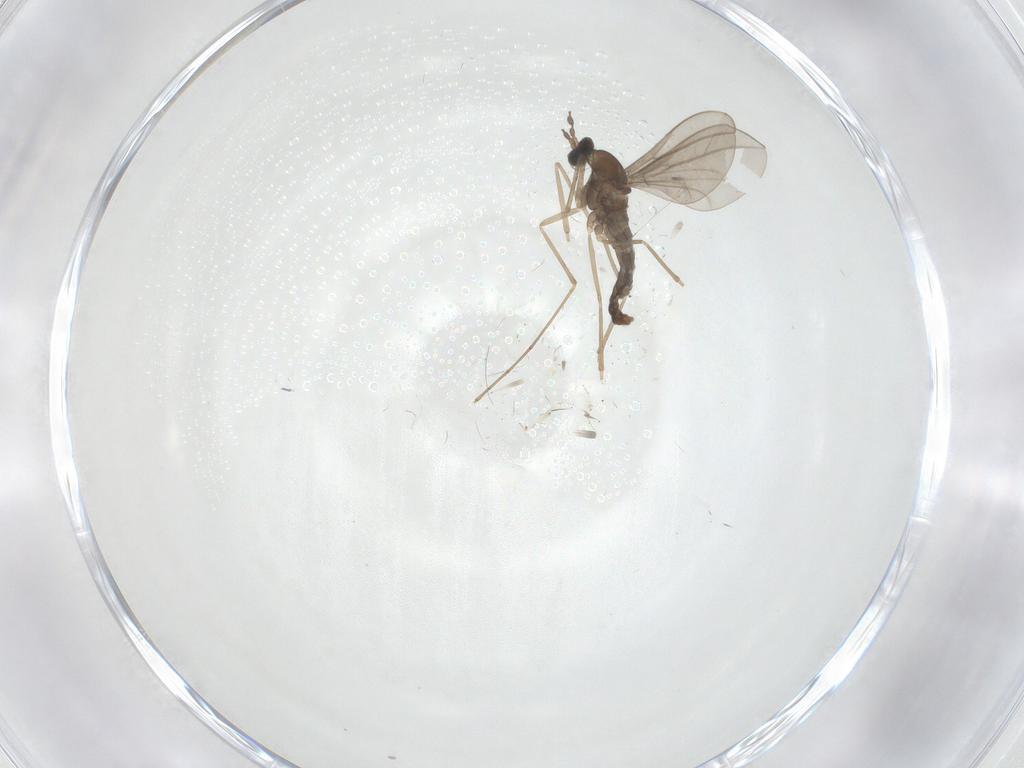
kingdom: Animalia
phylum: Arthropoda
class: Insecta
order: Diptera
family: Cecidomyiidae
